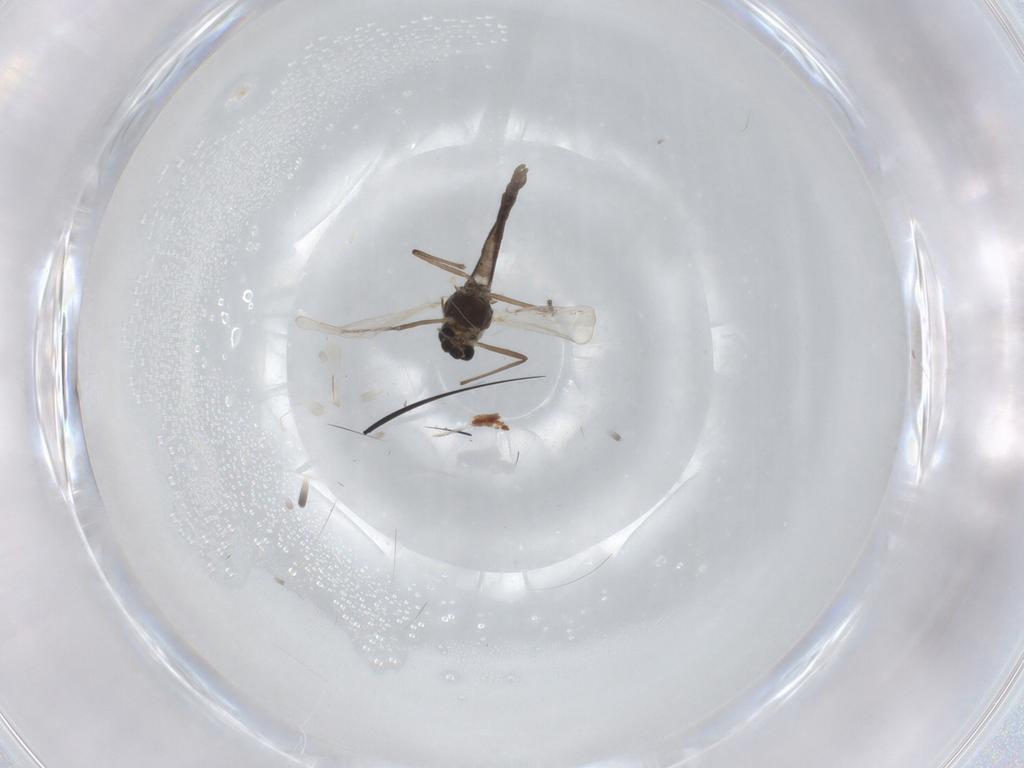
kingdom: Animalia
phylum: Arthropoda
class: Insecta
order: Diptera
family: Chironomidae
